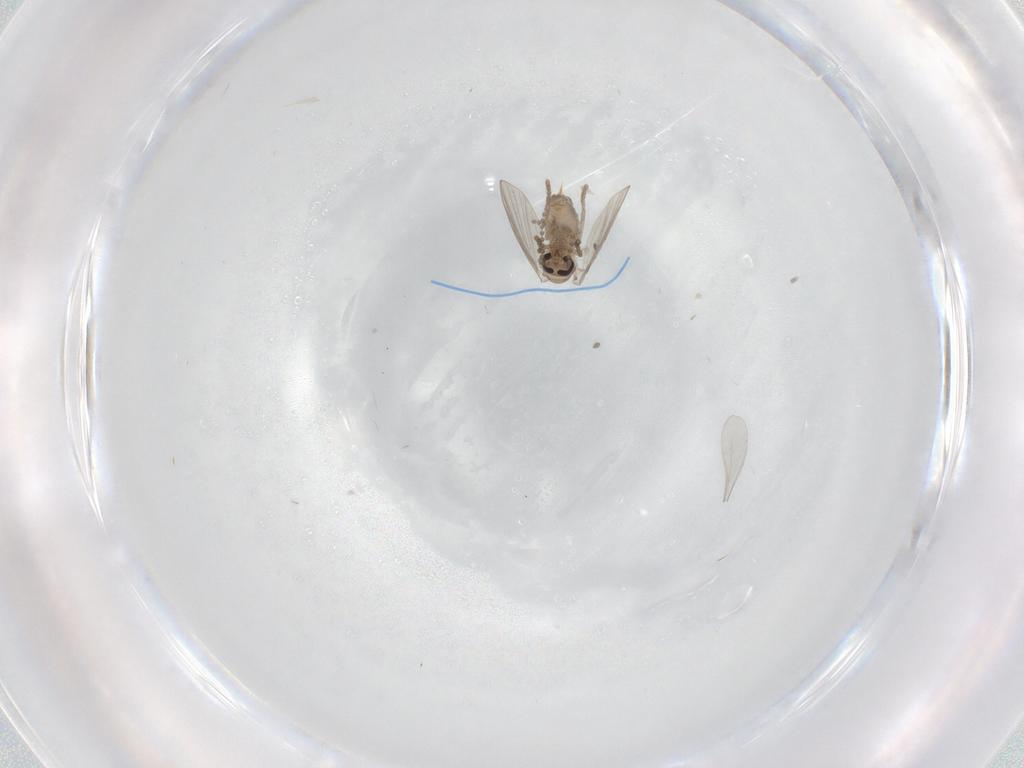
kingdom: Animalia
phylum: Arthropoda
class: Insecta
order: Diptera
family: Psychodidae
